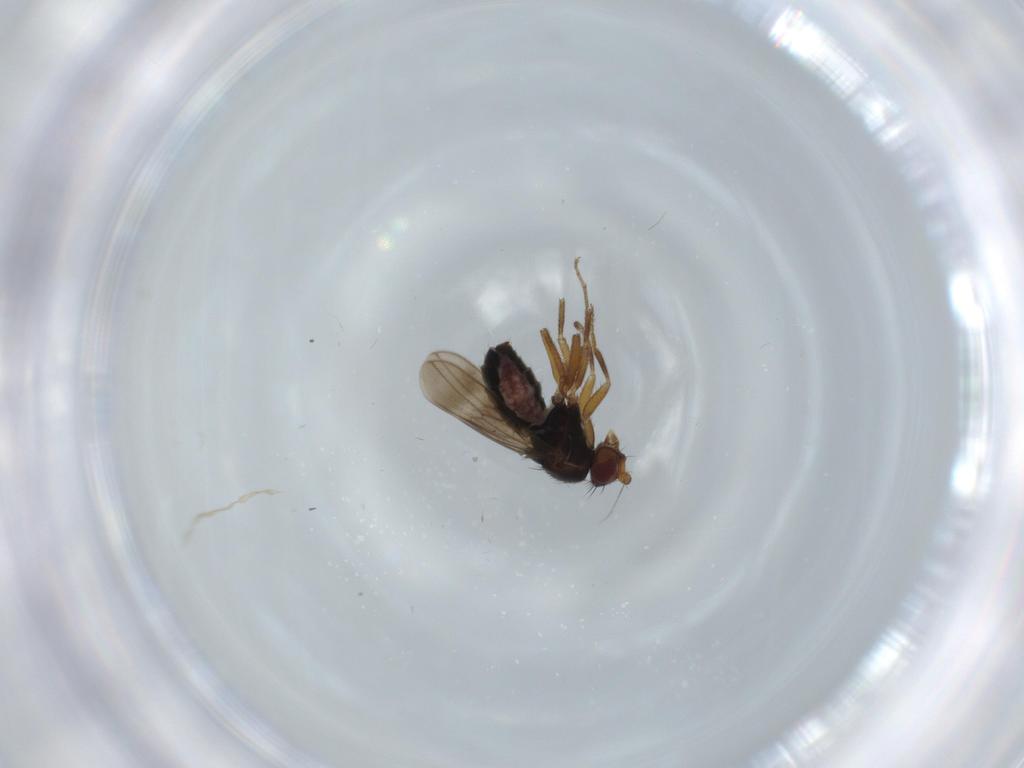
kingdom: Animalia
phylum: Arthropoda
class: Insecta
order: Diptera
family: Sphaeroceridae
